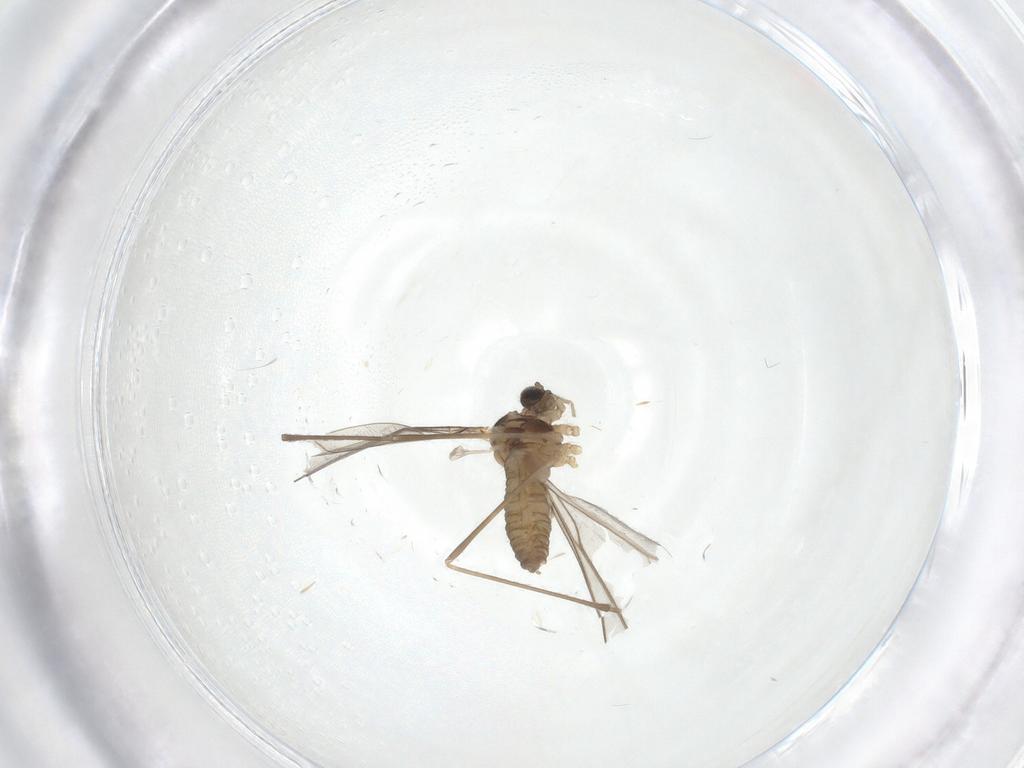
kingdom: Animalia
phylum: Arthropoda
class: Insecta
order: Diptera
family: Cecidomyiidae
